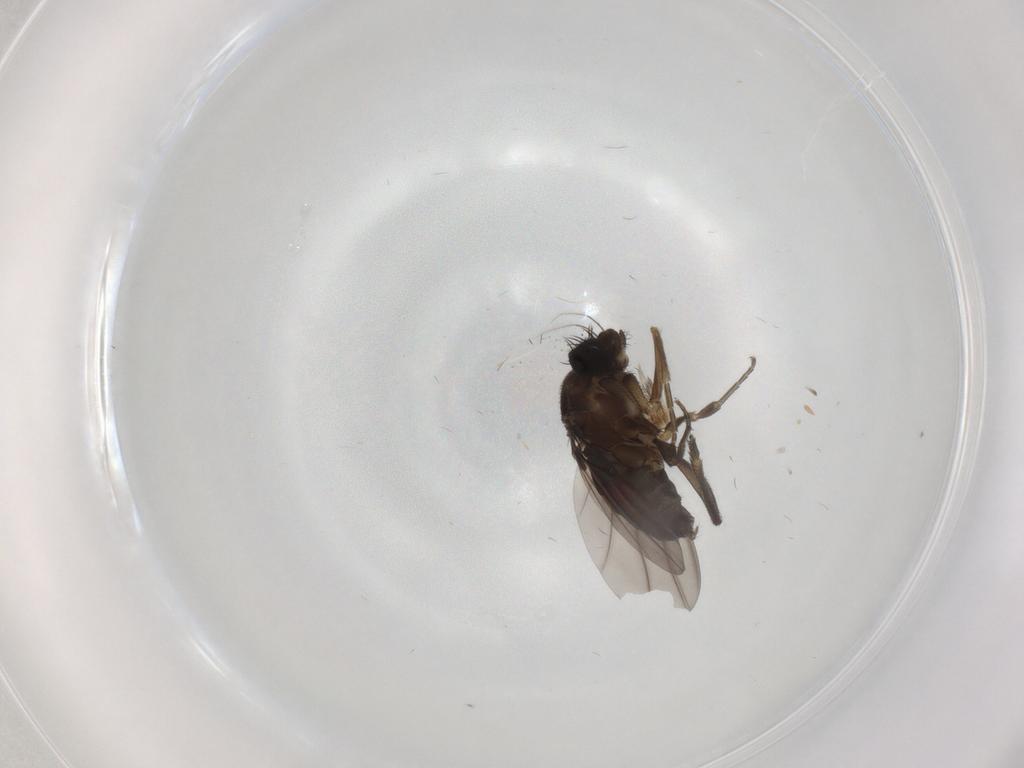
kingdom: Animalia
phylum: Arthropoda
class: Insecta
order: Diptera
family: Phoridae
